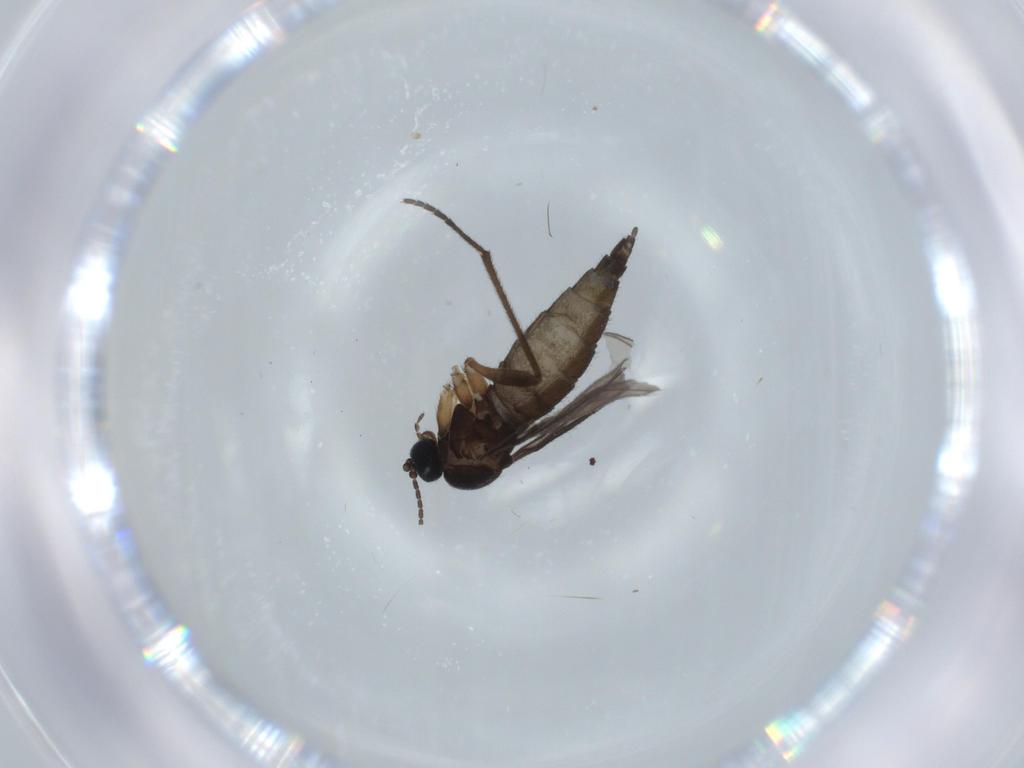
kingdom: Animalia
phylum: Arthropoda
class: Insecta
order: Diptera
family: Sciaridae
